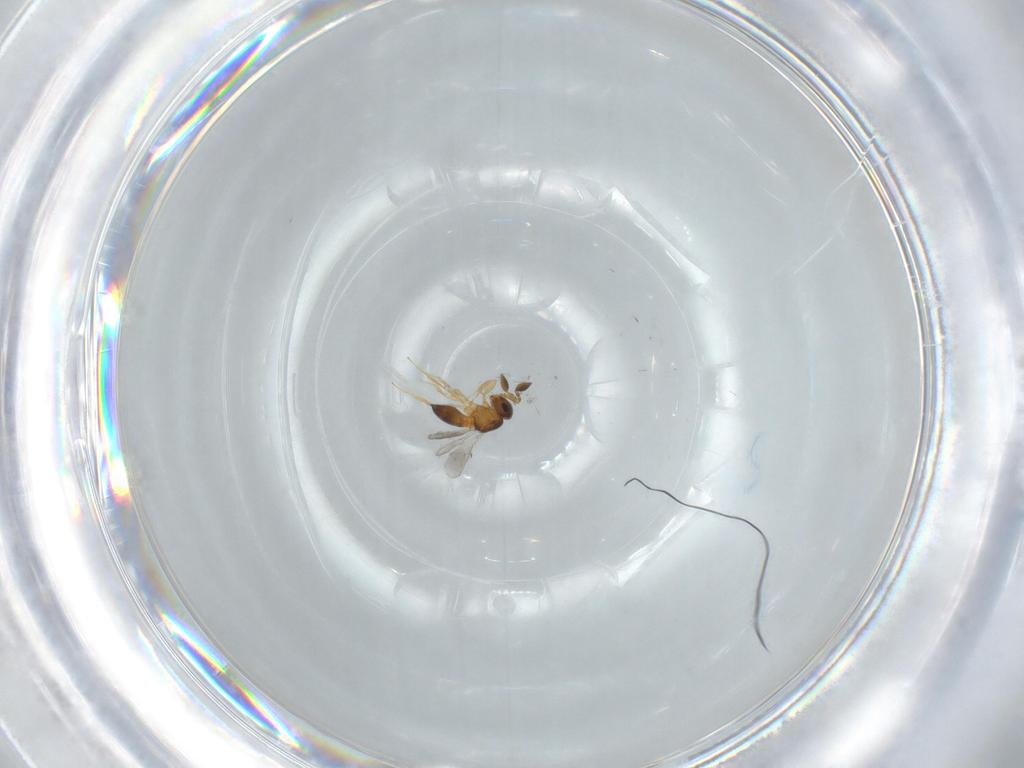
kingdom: Animalia
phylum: Arthropoda
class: Insecta
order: Hymenoptera
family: Scelionidae
